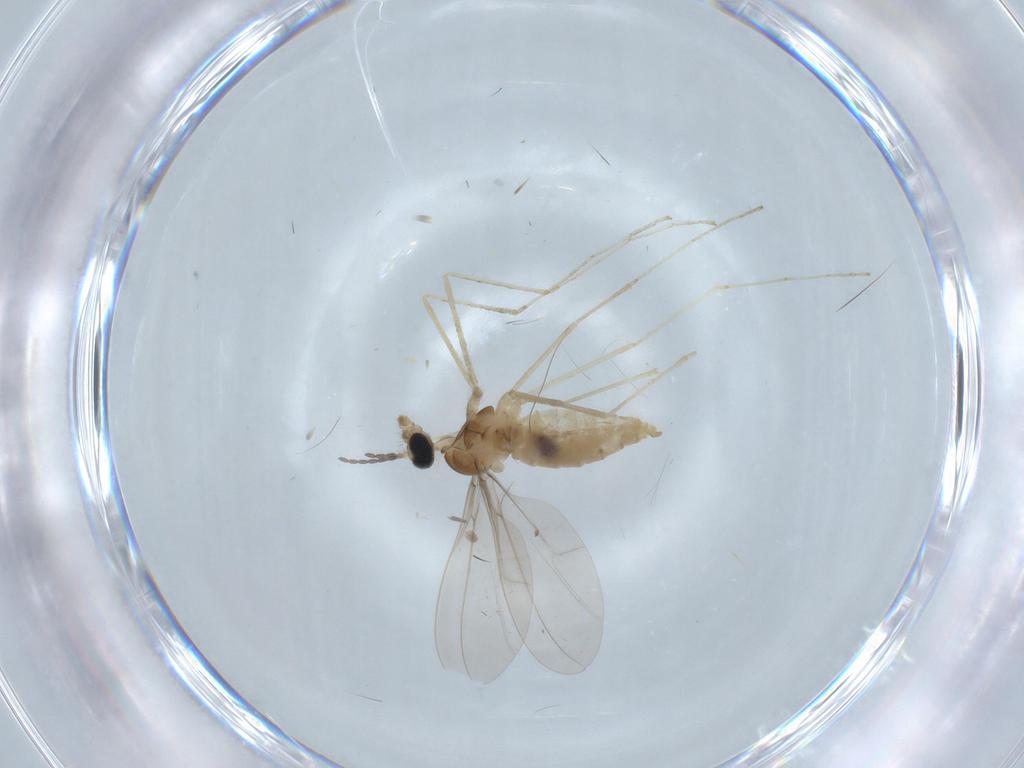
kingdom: Animalia
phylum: Arthropoda
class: Insecta
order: Diptera
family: Cecidomyiidae
